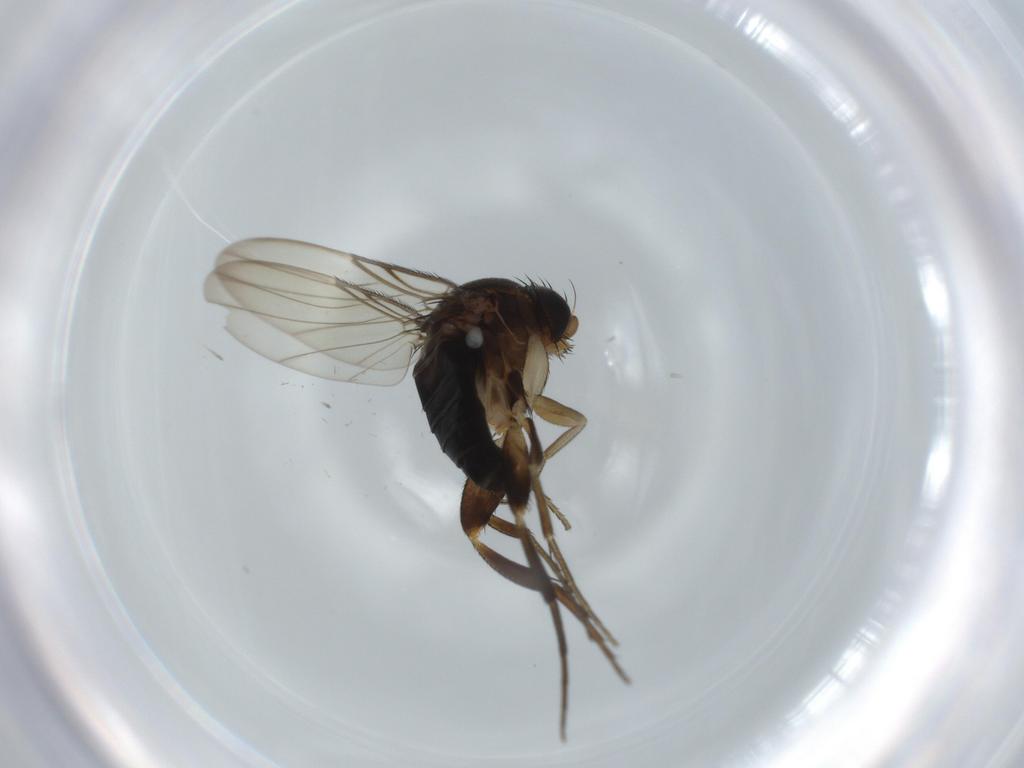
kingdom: Animalia
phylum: Arthropoda
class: Insecta
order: Diptera
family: Phoridae
